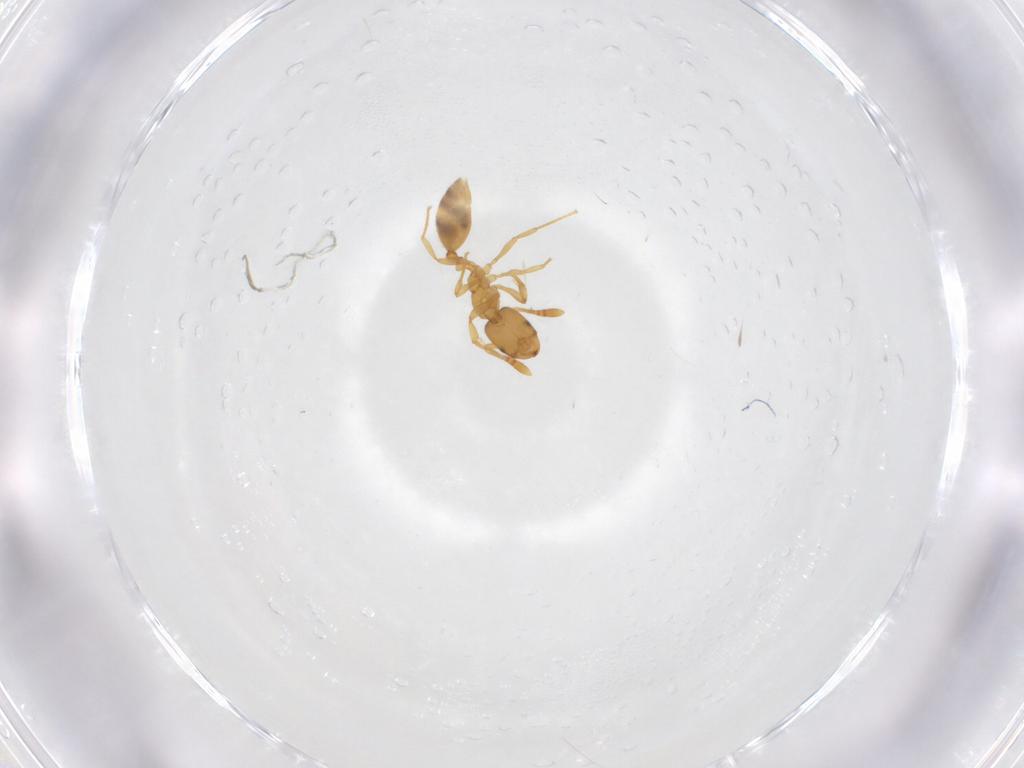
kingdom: Animalia
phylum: Arthropoda
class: Insecta
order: Hymenoptera
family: Formicidae
